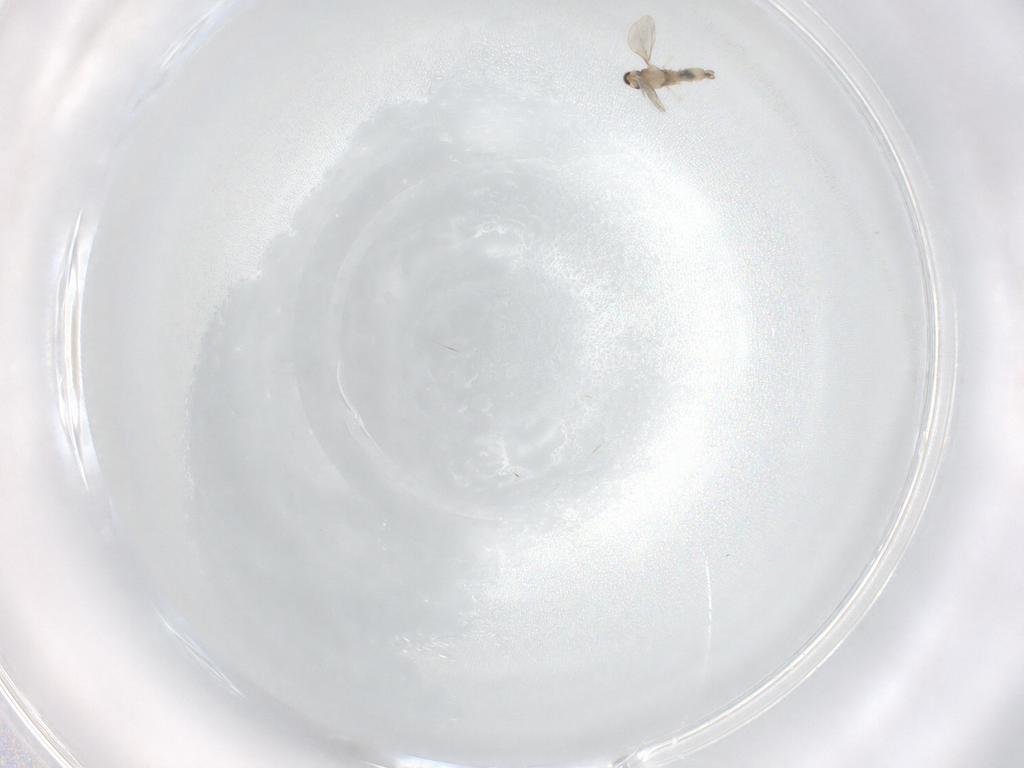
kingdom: Animalia
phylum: Arthropoda
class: Insecta
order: Diptera
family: Cecidomyiidae
